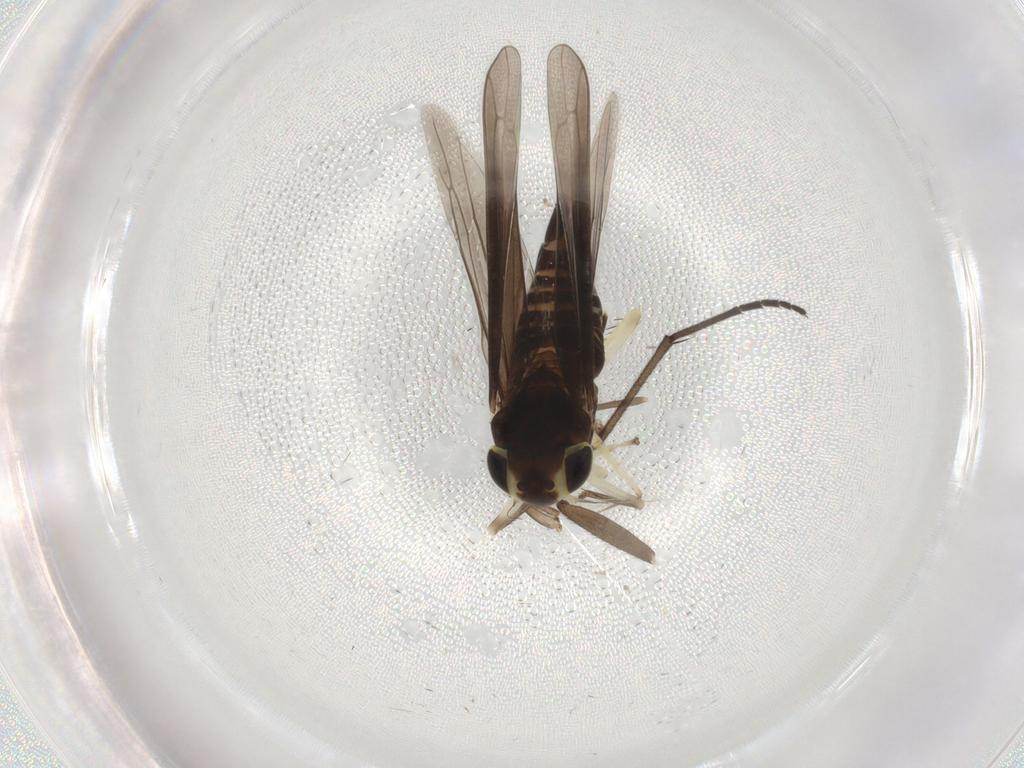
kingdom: Animalia
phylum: Arthropoda
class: Insecta
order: Hemiptera
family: Cicadellidae
